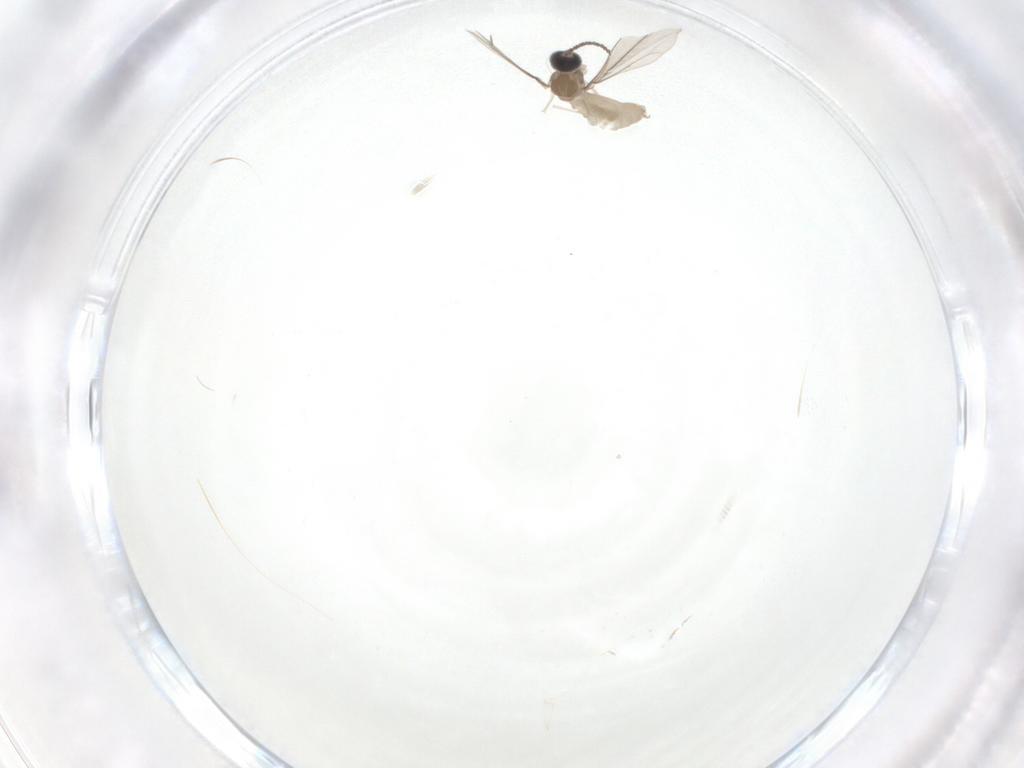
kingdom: Animalia
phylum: Arthropoda
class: Insecta
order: Diptera
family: Cecidomyiidae
